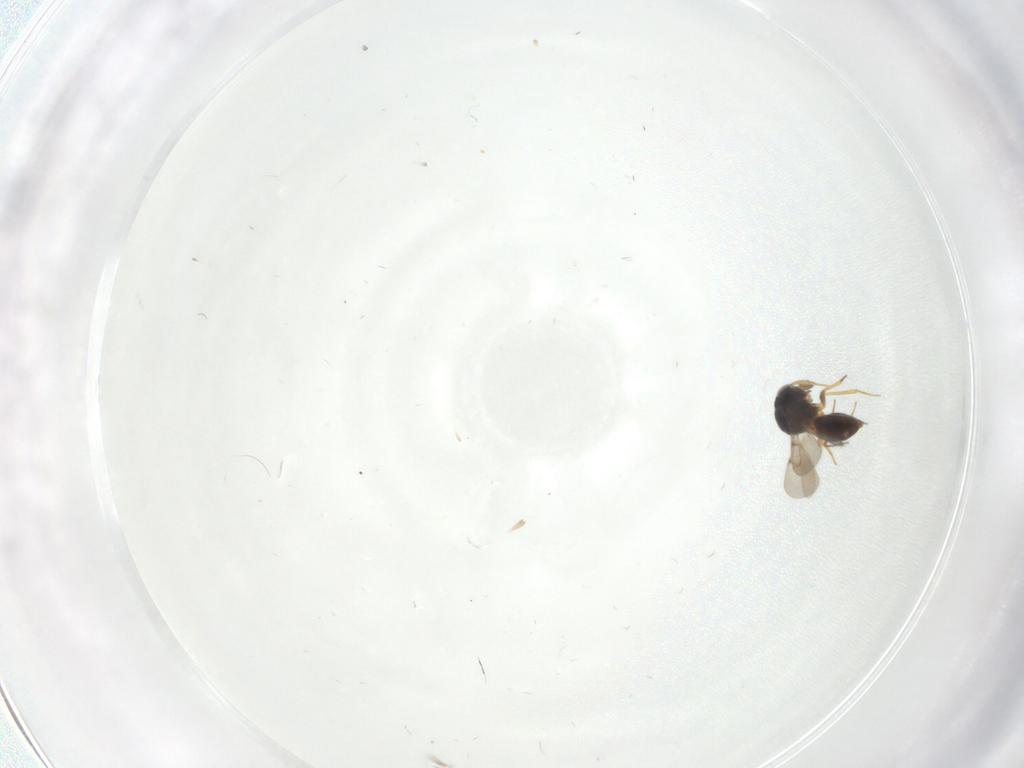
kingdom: Animalia
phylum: Arthropoda
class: Insecta
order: Hymenoptera
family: Scelionidae
